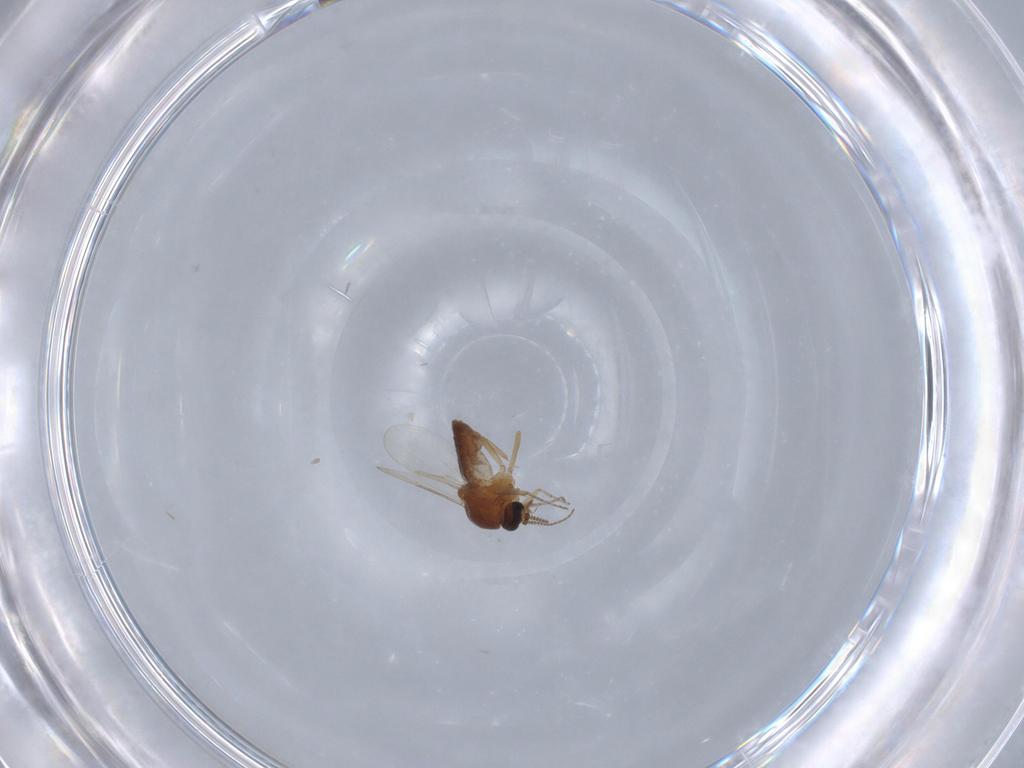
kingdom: Animalia
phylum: Arthropoda
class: Insecta
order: Diptera
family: Ceratopogonidae
